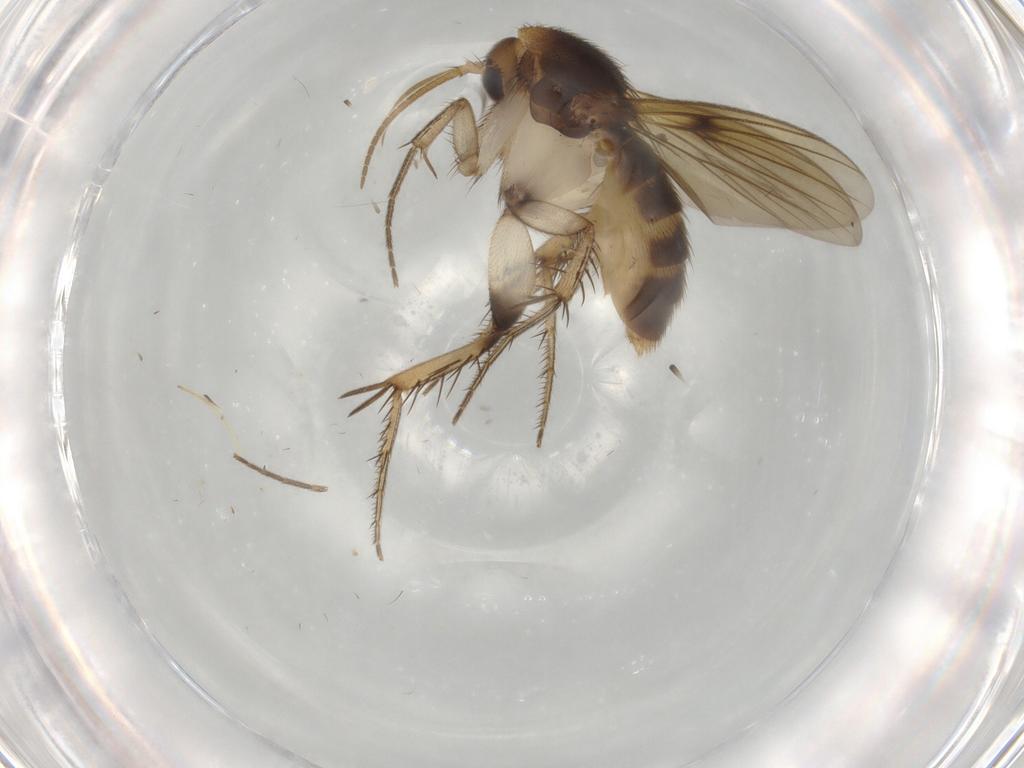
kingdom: Animalia
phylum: Arthropoda
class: Insecta
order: Diptera
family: Mycetophilidae
